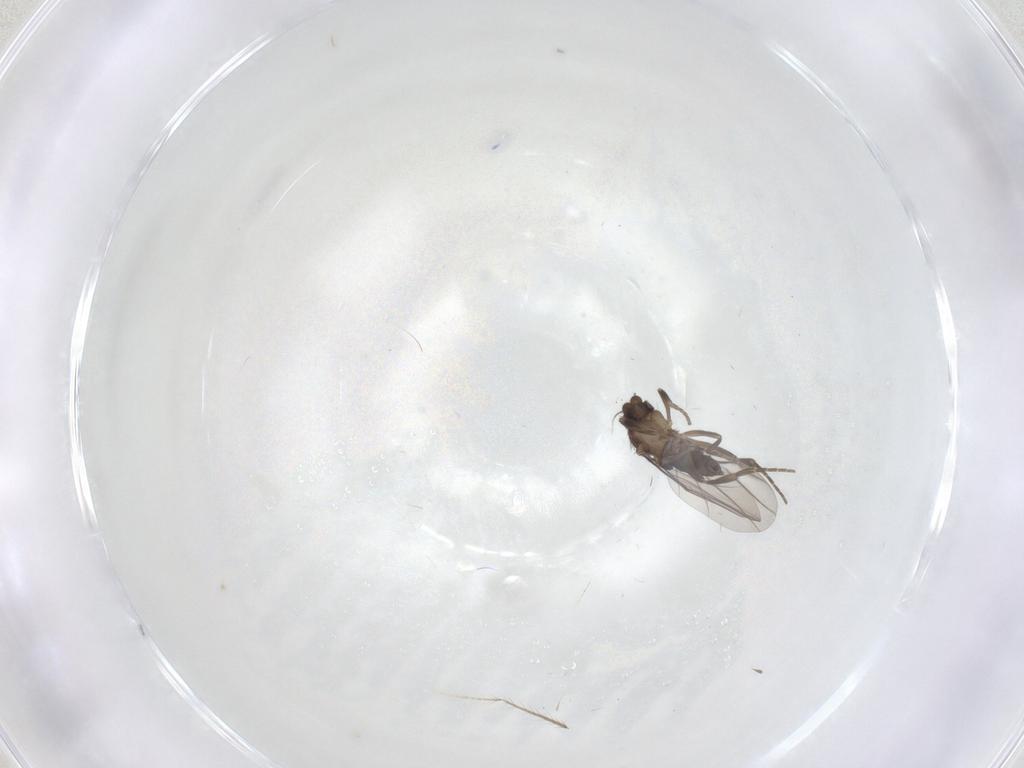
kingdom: Animalia
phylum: Arthropoda
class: Insecta
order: Diptera
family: Phoridae
